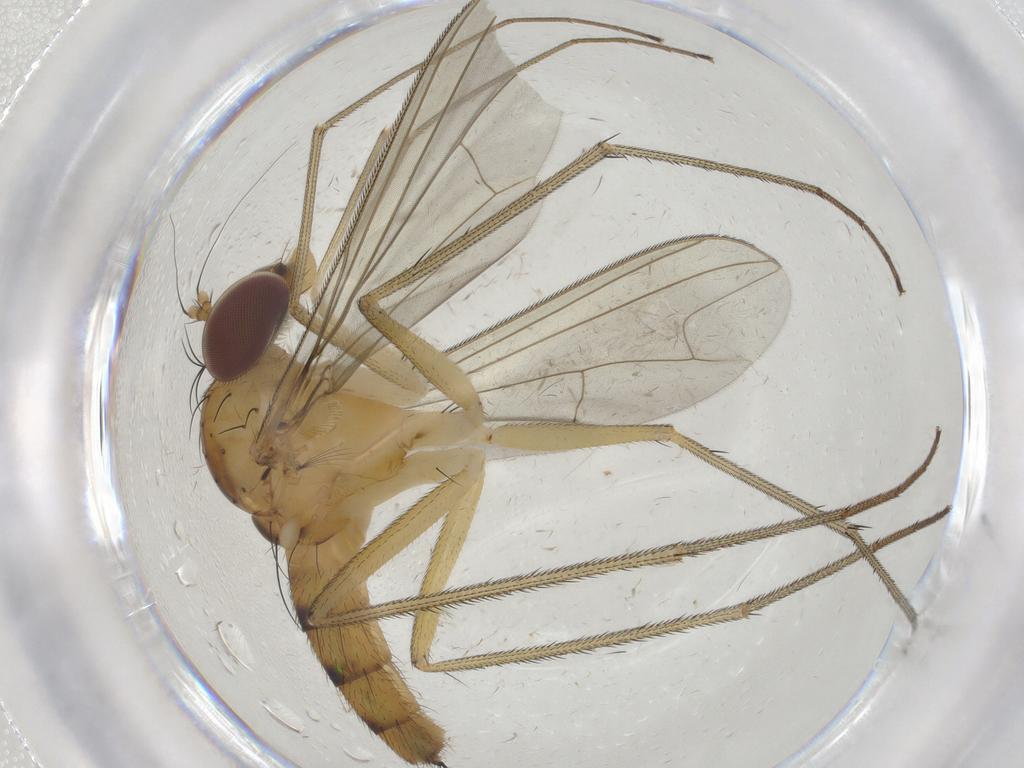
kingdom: Animalia
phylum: Arthropoda
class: Insecta
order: Diptera
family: Dolichopodidae
